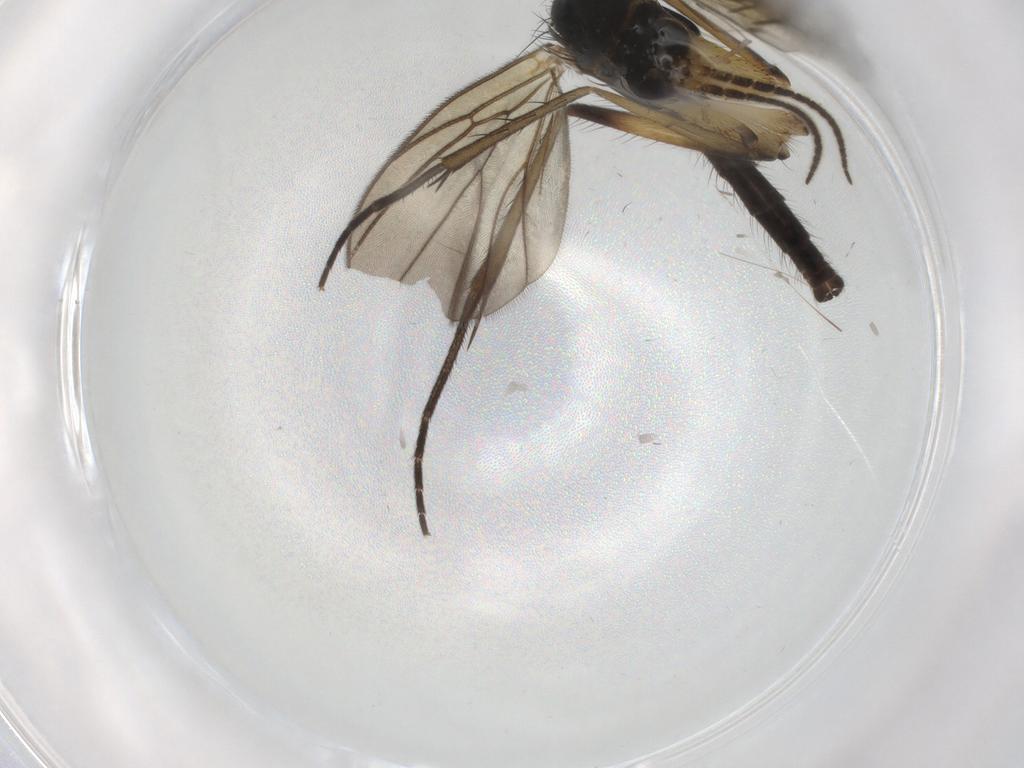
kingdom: Animalia
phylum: Arthropoda
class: Insecta
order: Diptera
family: Mycetophilidae
